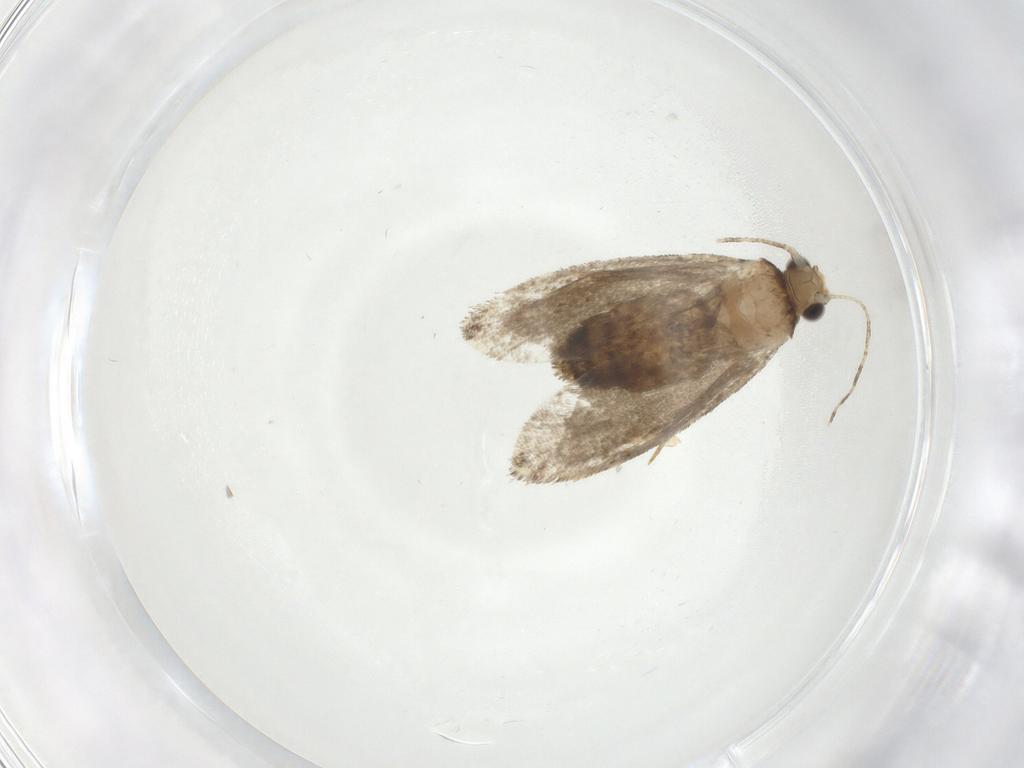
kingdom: Animalia
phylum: Arthropoda
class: Insecta
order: Lepidoptera
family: Tineidae
